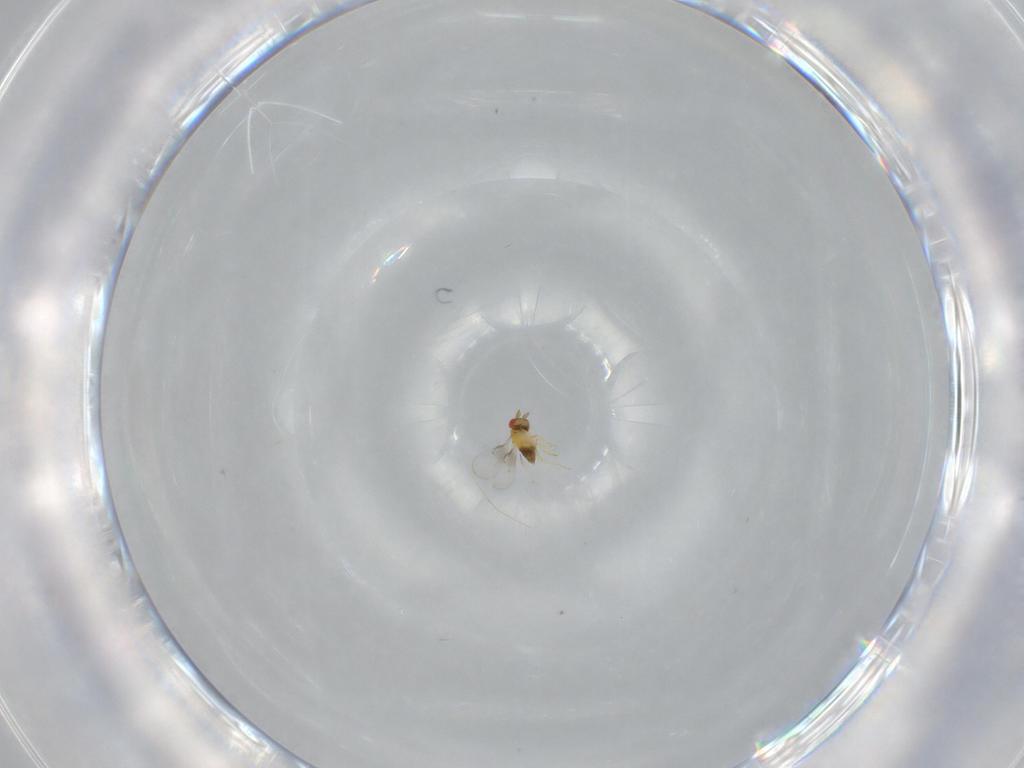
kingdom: Animalia
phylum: Arthropoda
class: Insecta
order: Hymenoptera
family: Trichogrammatidae
